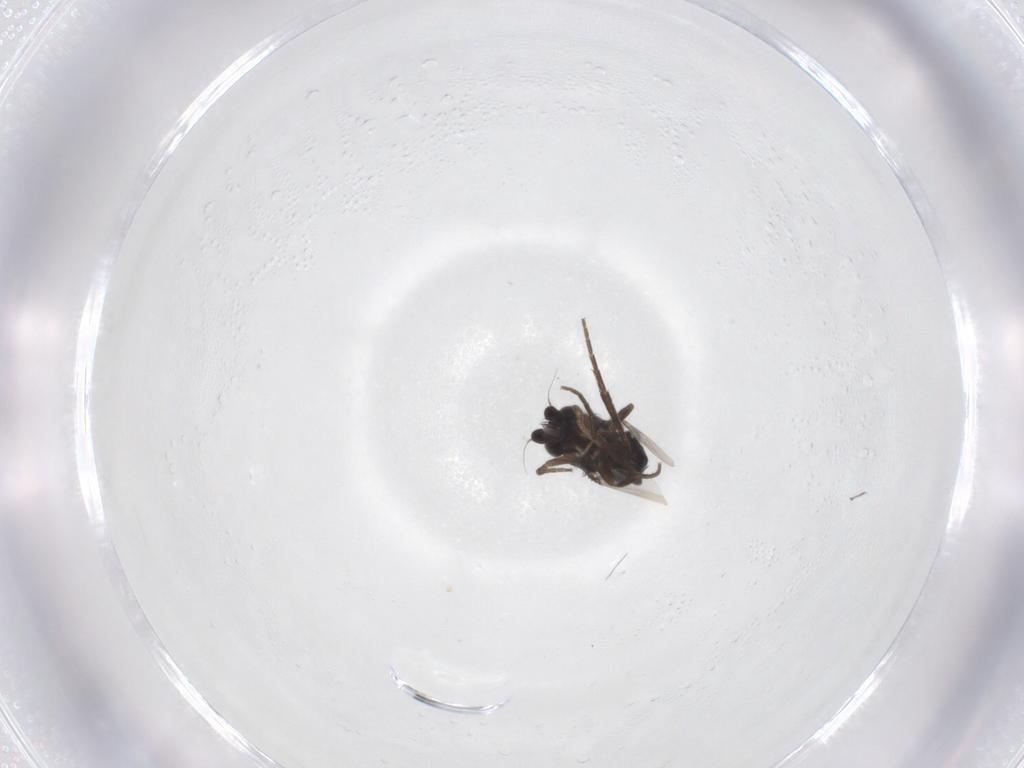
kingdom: Animalia
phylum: Arthropoda
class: Insecta
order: Diptera
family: Phoridae
